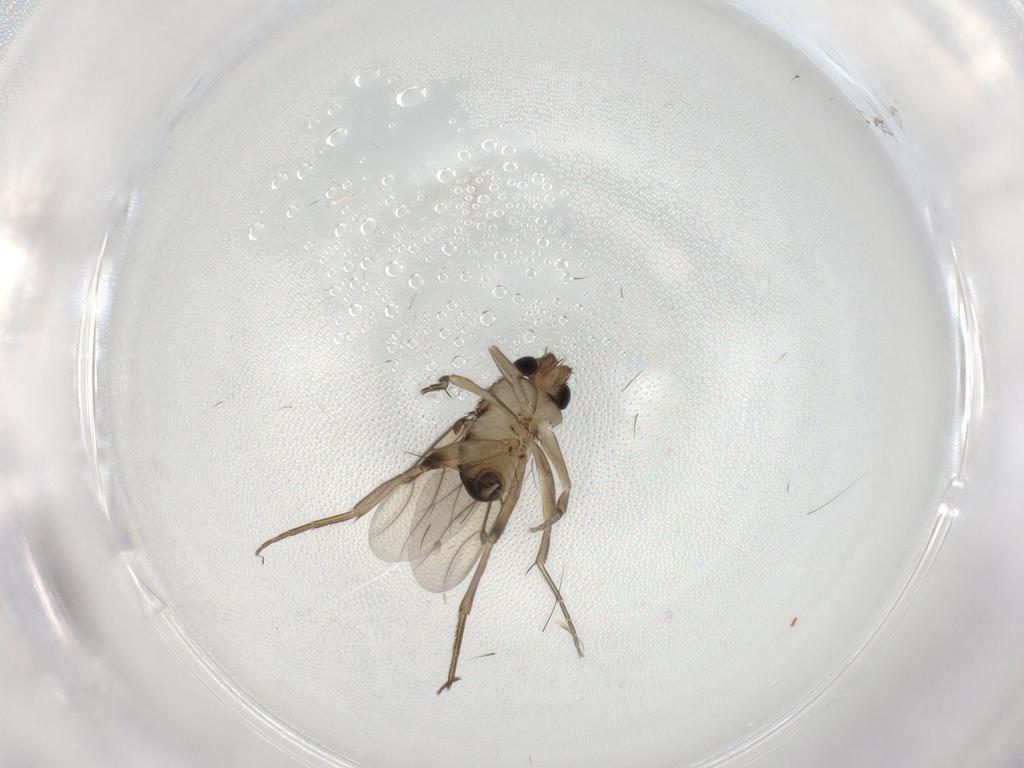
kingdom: Animalia
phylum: Arthropoda
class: Insecta
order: Diptera
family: Phoridae
